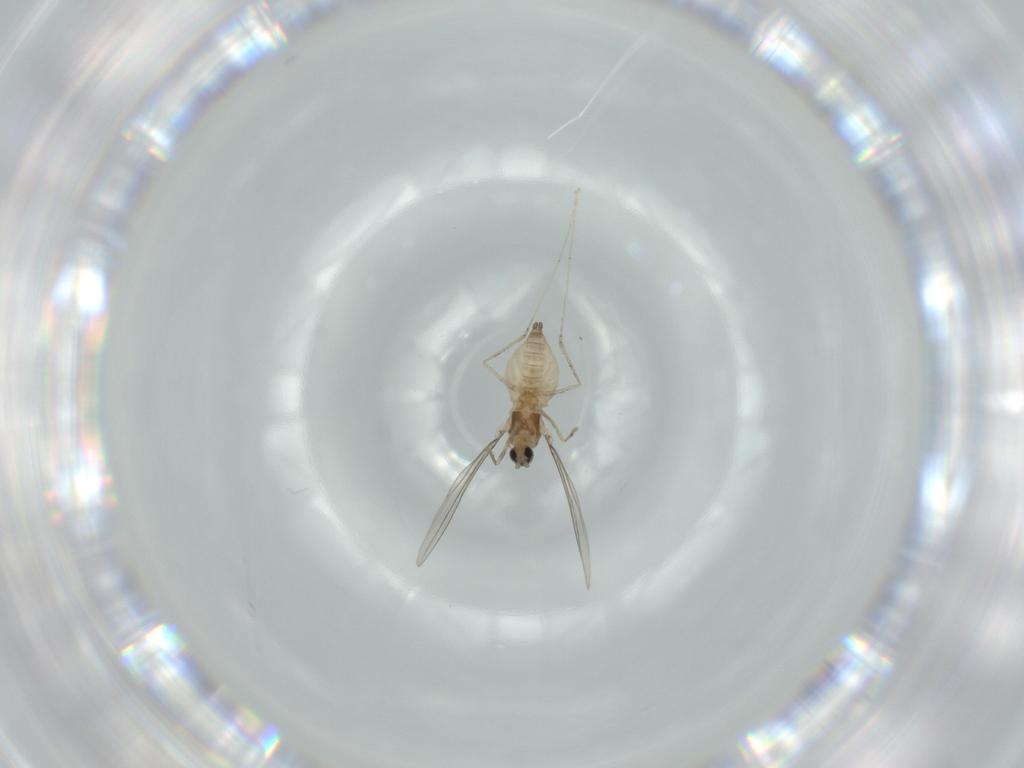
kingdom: Animalia
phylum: Arthropoda
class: Insecta
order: Diptera
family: Cecidomyiidae
